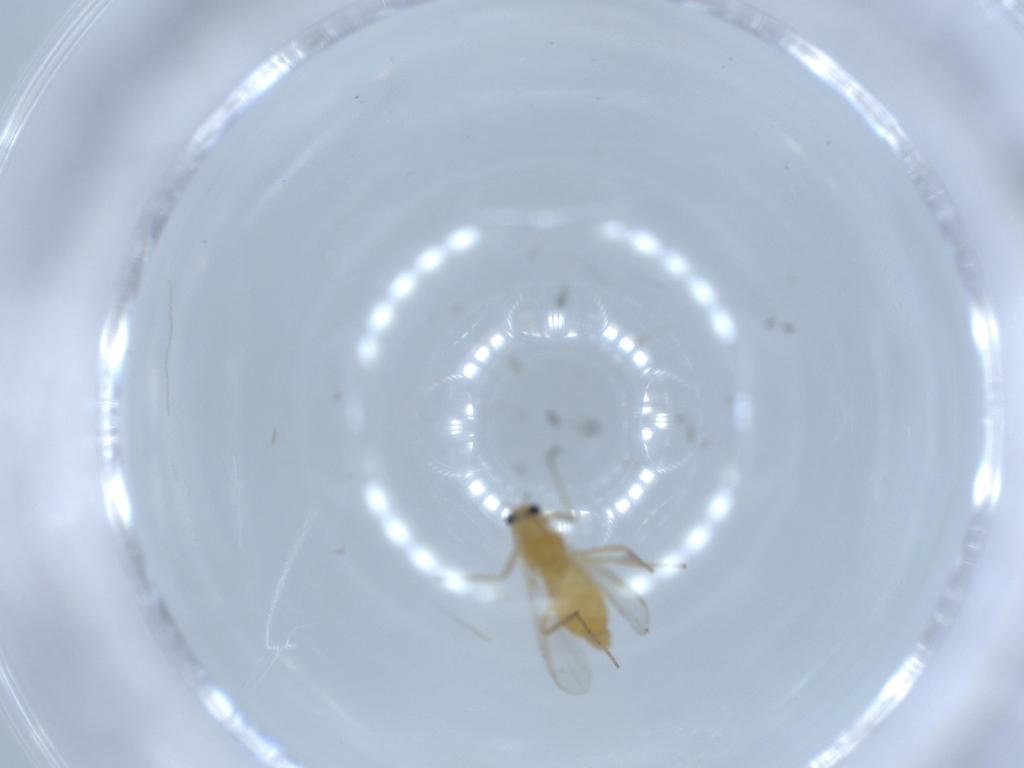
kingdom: Animalia
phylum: Arthropoda
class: Insecta
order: Diptera
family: Chironomidae
